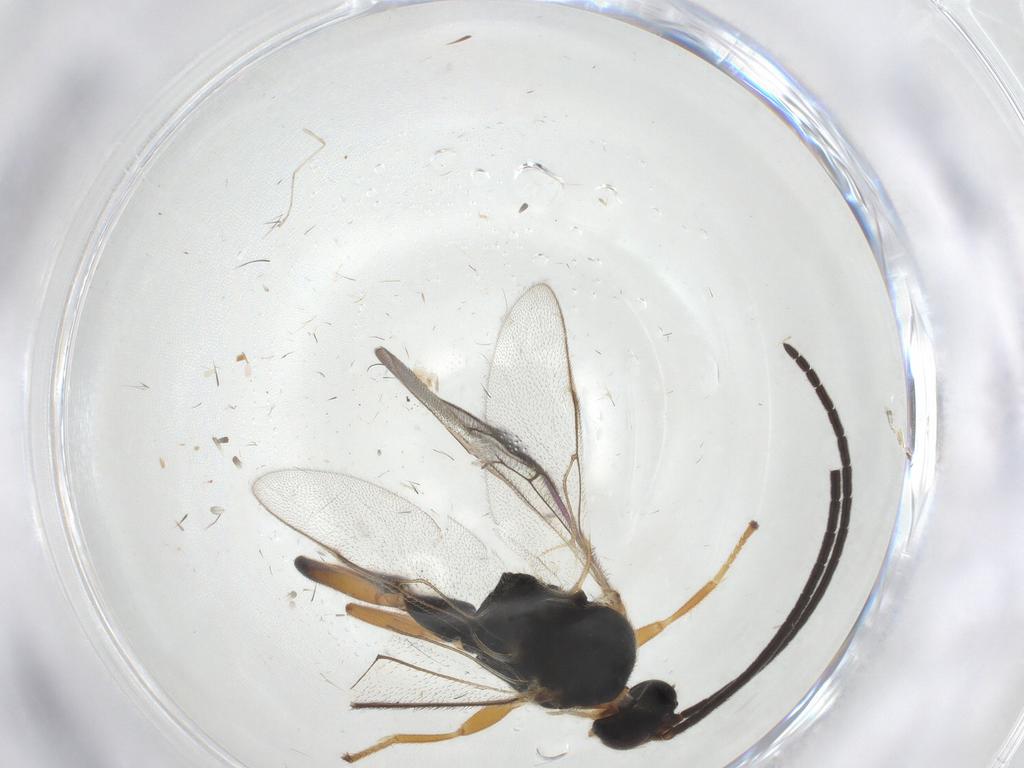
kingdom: Animalia
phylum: Arthropoda
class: Insecta
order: Hymenoptera
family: Braconidae
